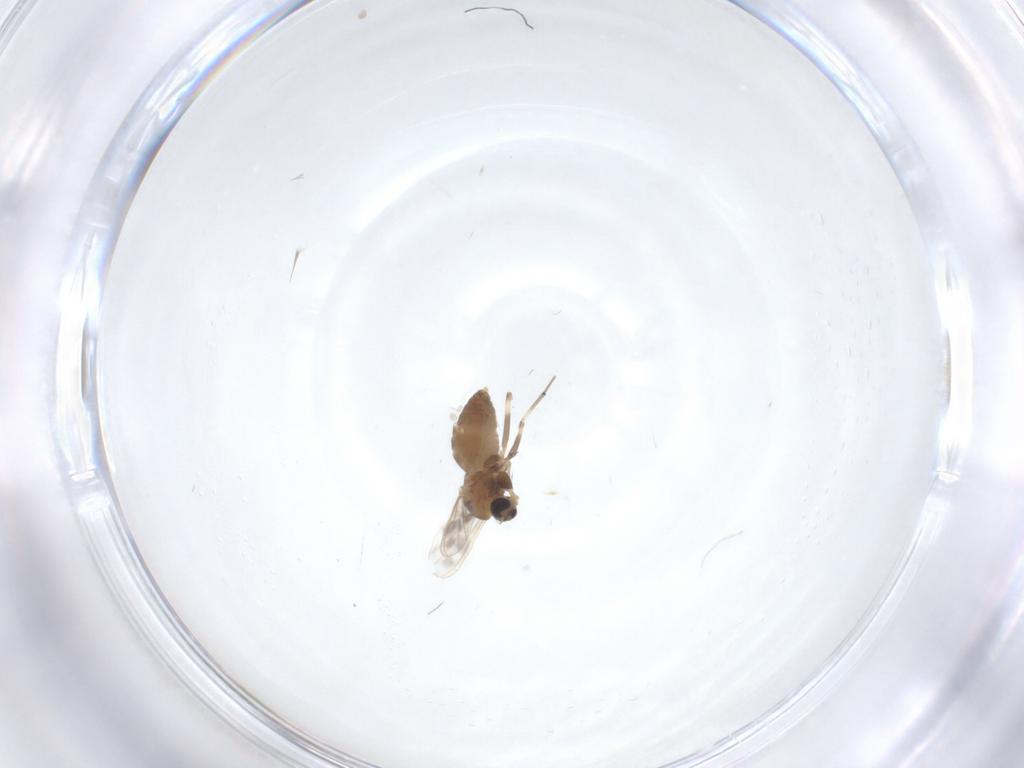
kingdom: Animalia
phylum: Arthropoda
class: Insecta
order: Diptera
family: Chironomidae
